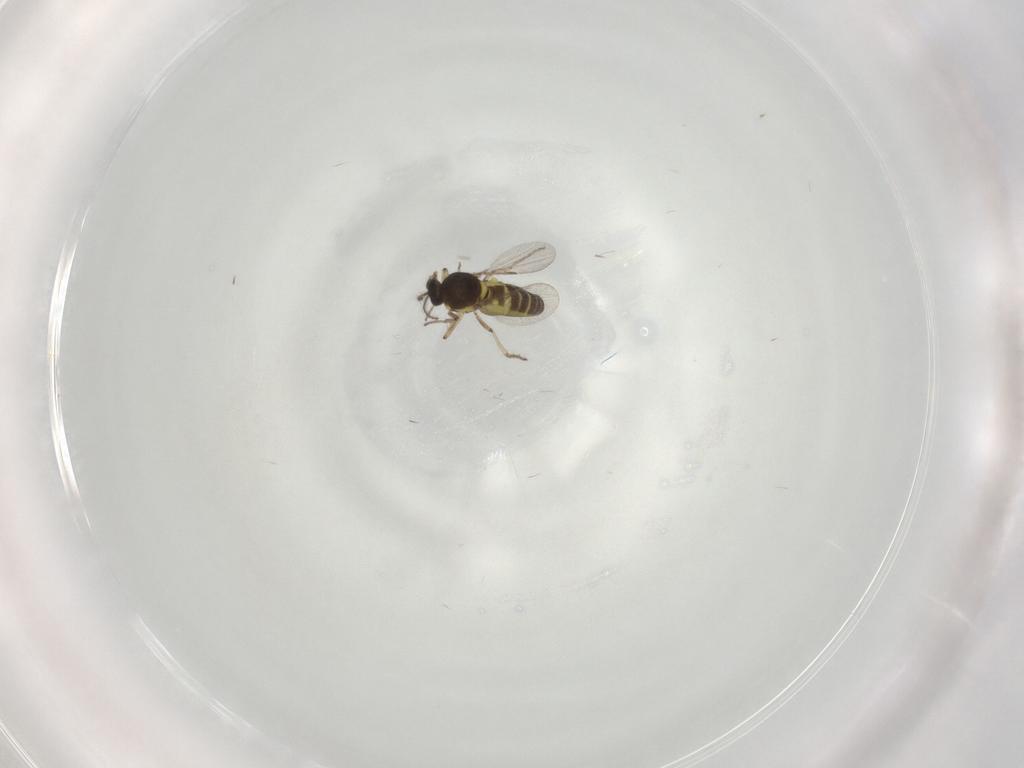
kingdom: Animalia
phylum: Arthropoda
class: Insecta
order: Diptera
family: Ceratopogonidae
